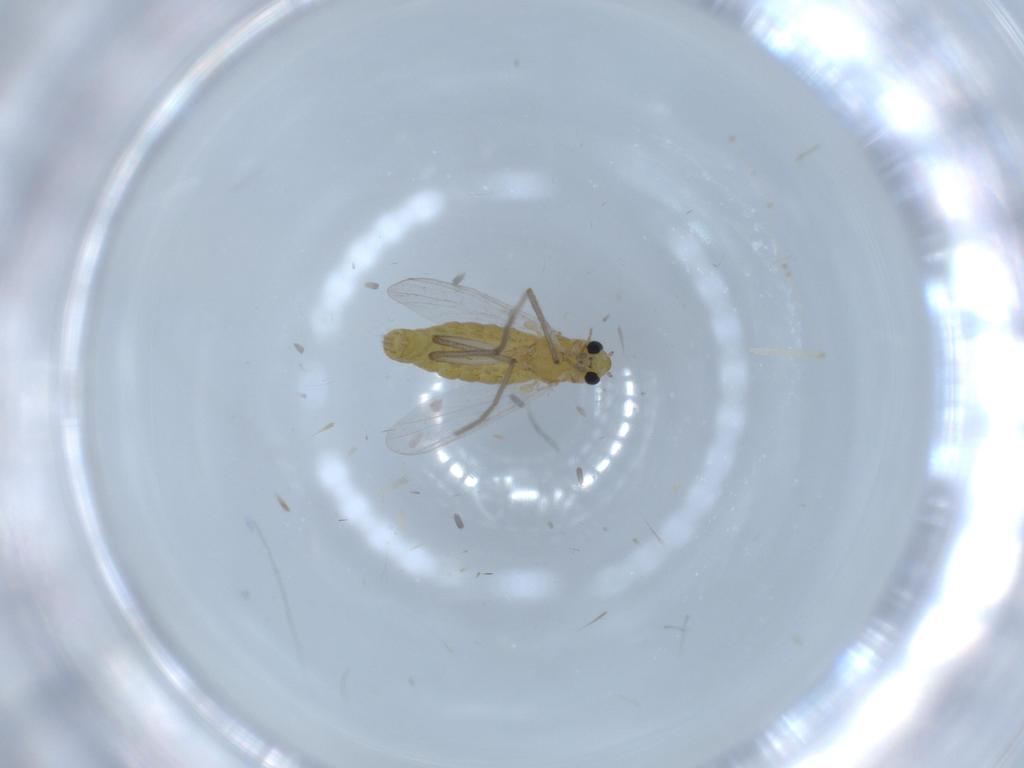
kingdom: Animalia
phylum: Arthropoda
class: Insecta
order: Diptera
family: Chironomidae
